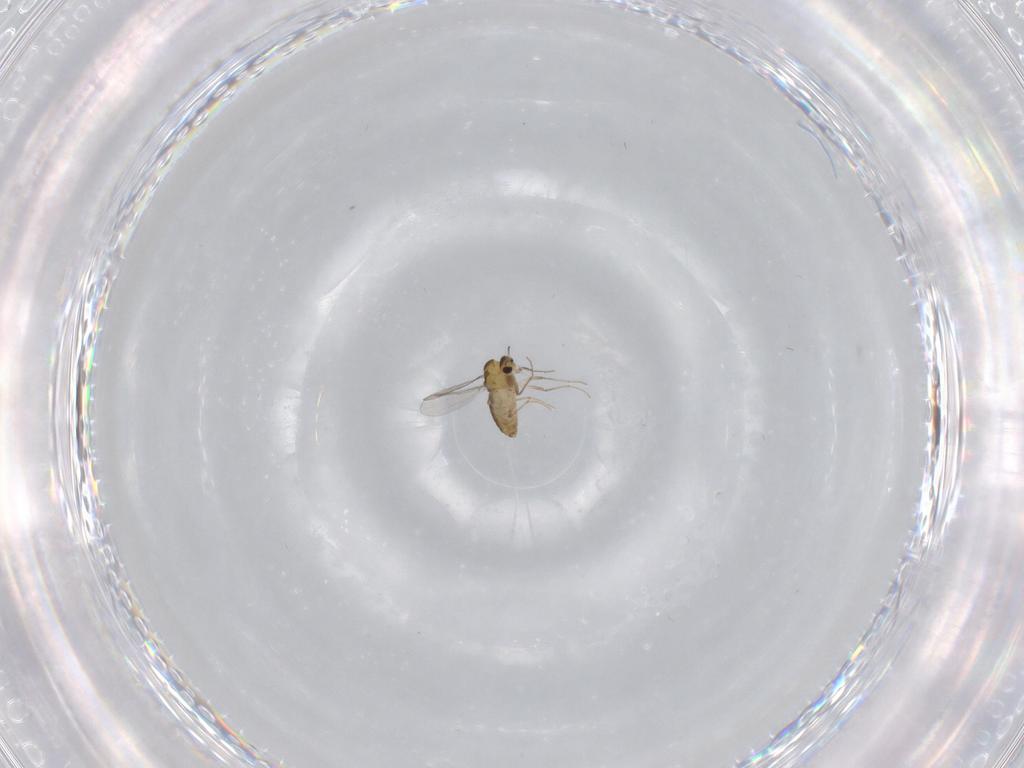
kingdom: Animalia
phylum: Arthropoda
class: Insecta
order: Diptera
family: Chironomidae
